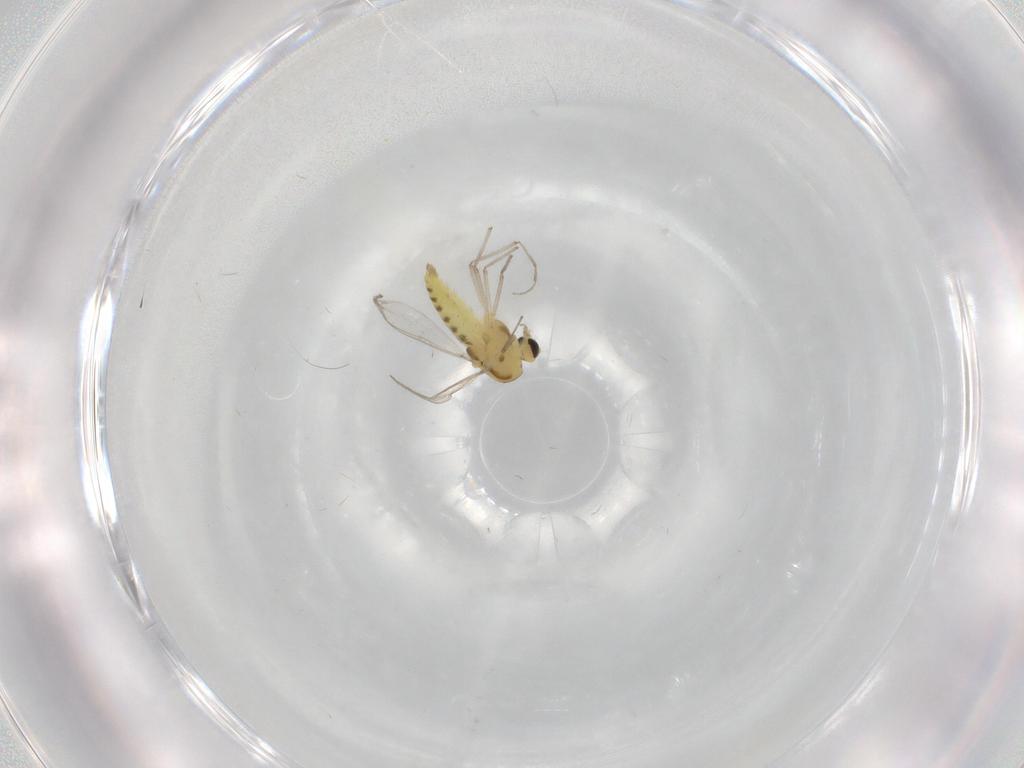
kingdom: Animalia
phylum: Arthropoda
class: Insecta
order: Diptera
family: Chironomidae
